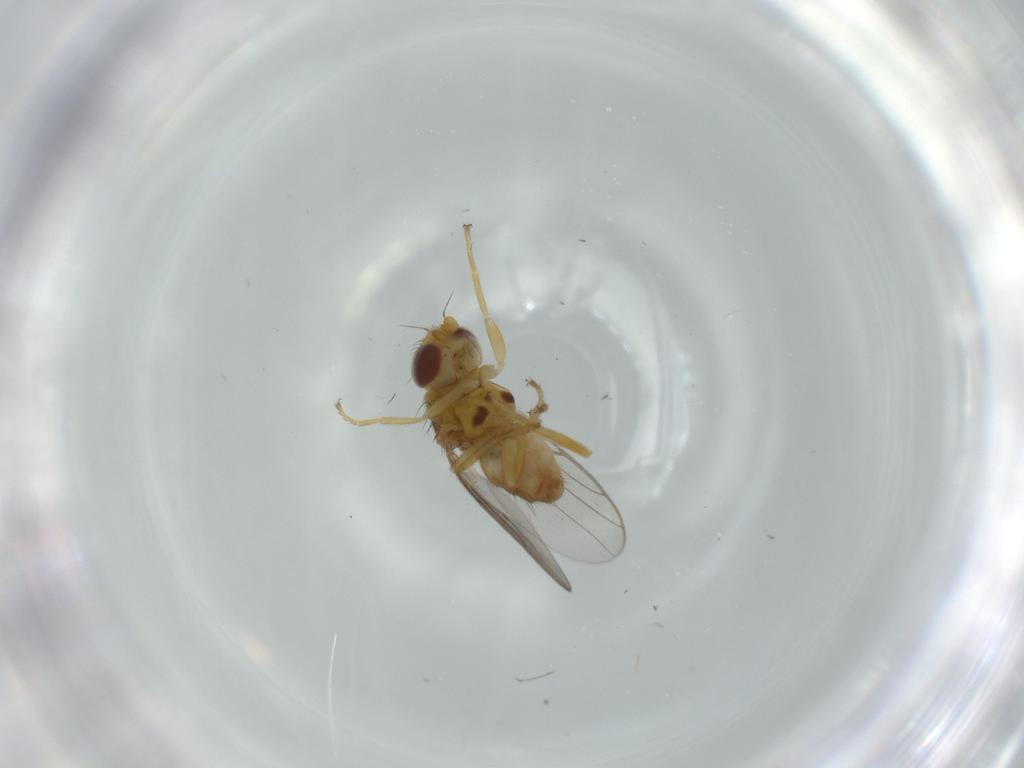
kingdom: Animalia
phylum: Arthropoda
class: Insecta
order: Diptera
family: Chloropidae
